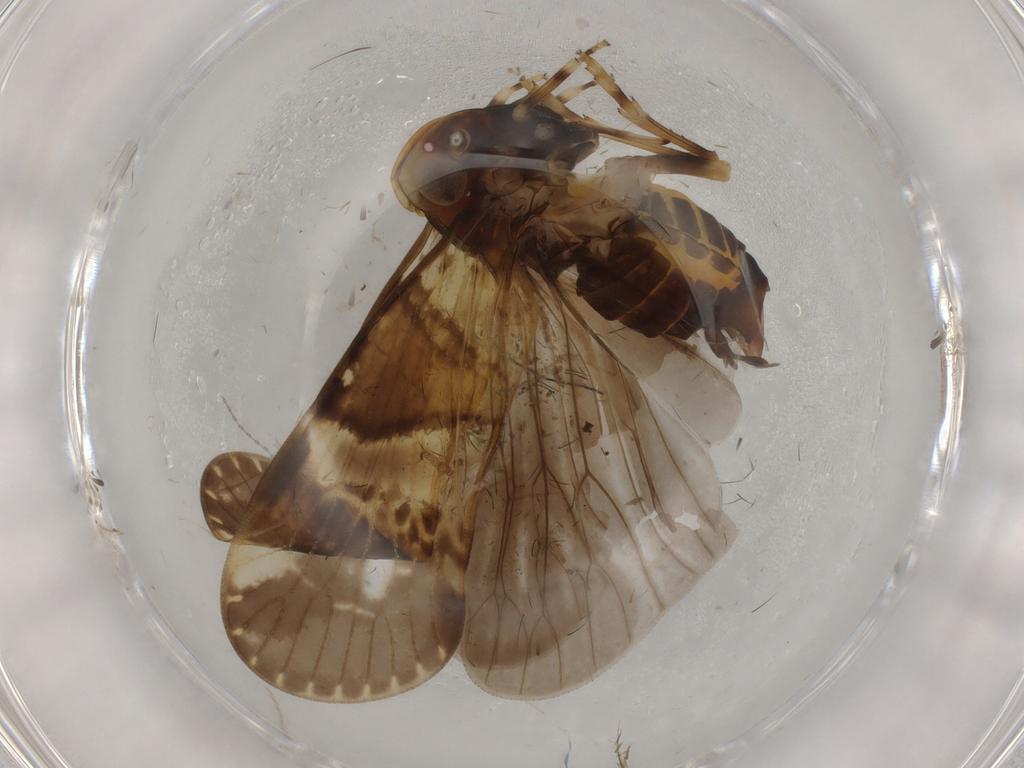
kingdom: Animalia
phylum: Arthropoda
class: Insecta
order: Hemiptera
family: Cixiidae
